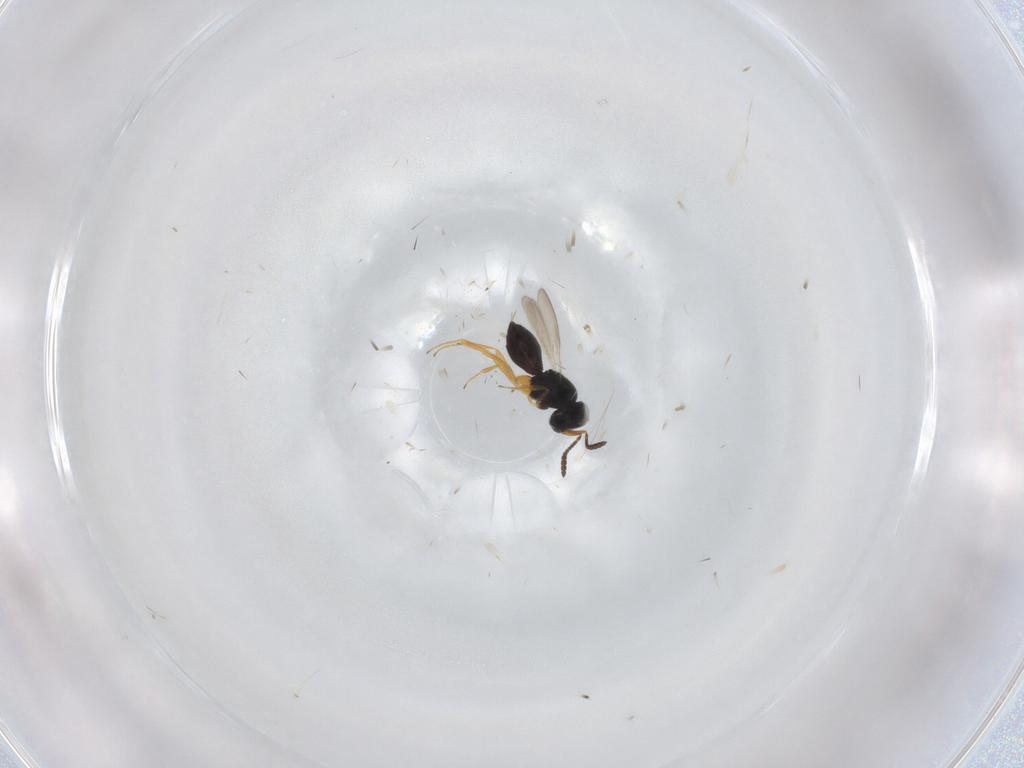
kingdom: Animalia
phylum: Arthropoda
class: Insecta
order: Hymenoptera
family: Scelionidae
